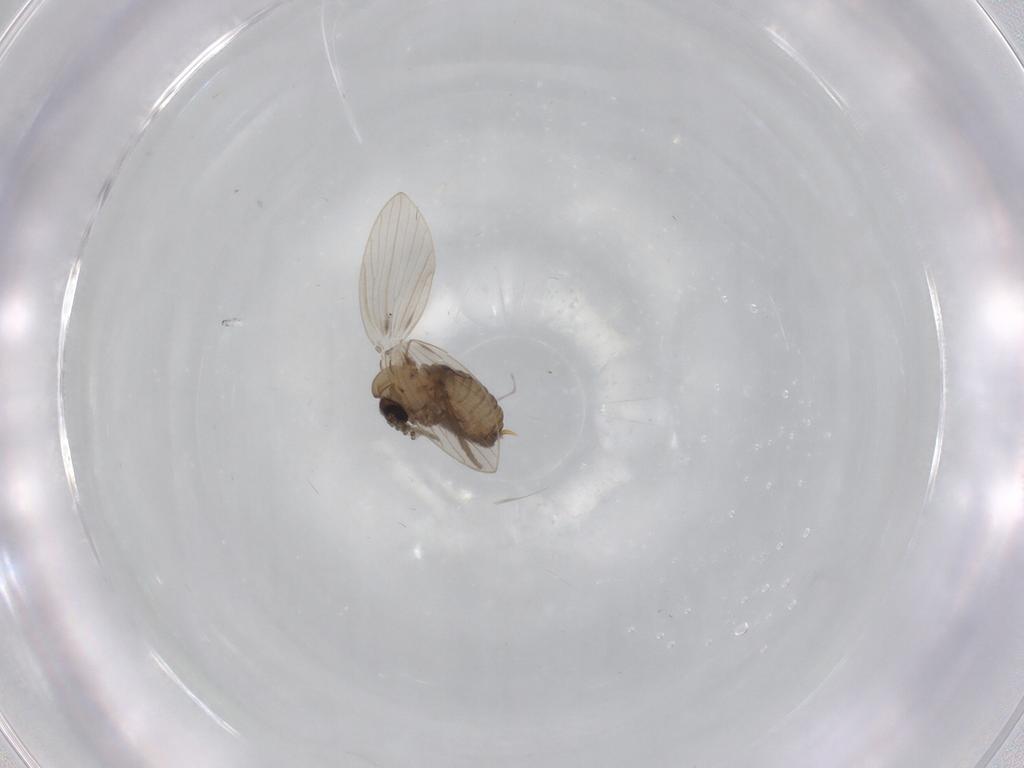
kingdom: Animalia
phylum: Arthropoda
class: Insecta
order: Diptera
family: Psychodidae
